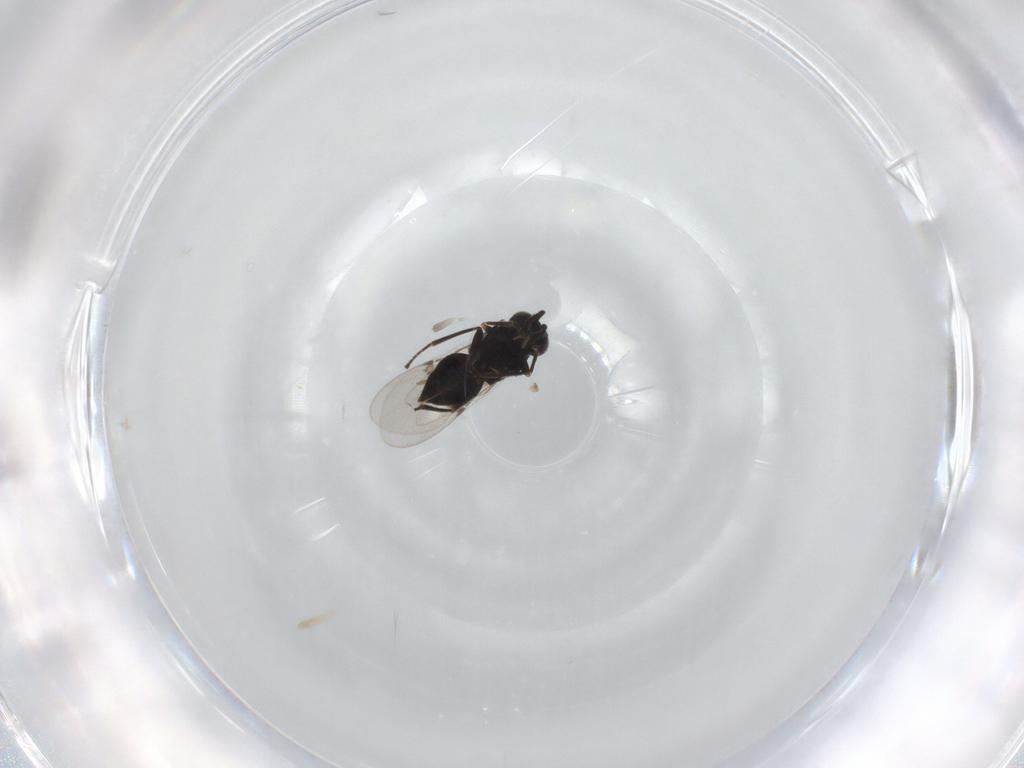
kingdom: Animalia
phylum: Arthropoda
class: Insecta
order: Hymenoptera
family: Encyrtidae
